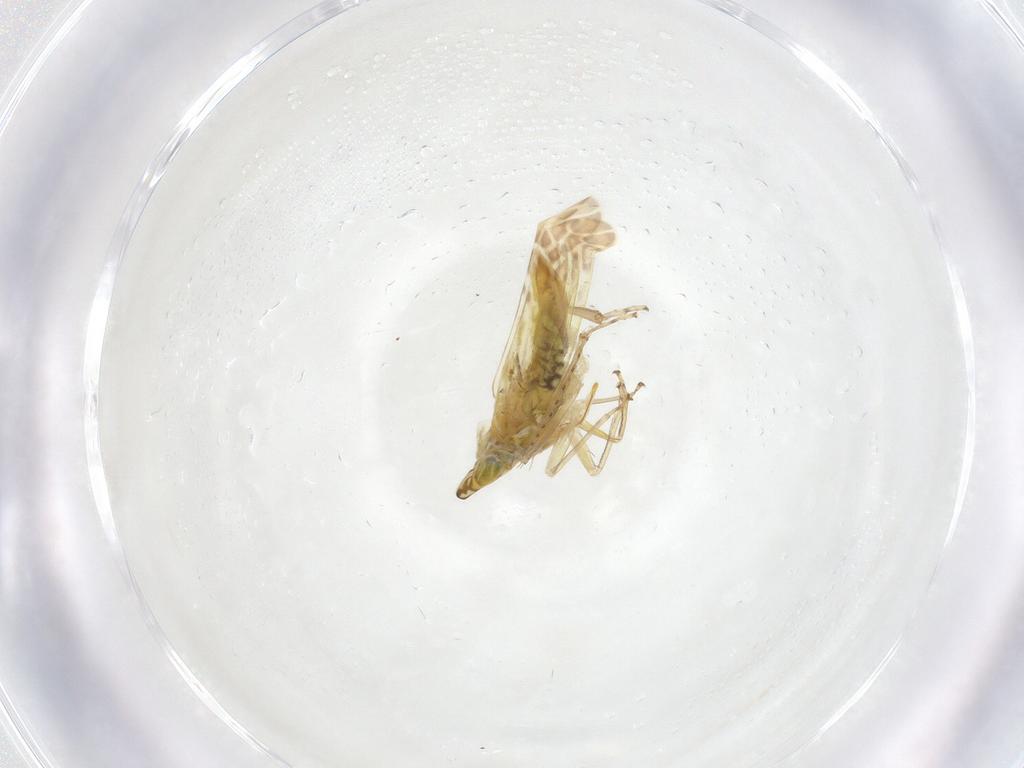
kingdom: Animalia
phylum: Arthropoda
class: Insecta
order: Hemiptera
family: Cicadellidae
